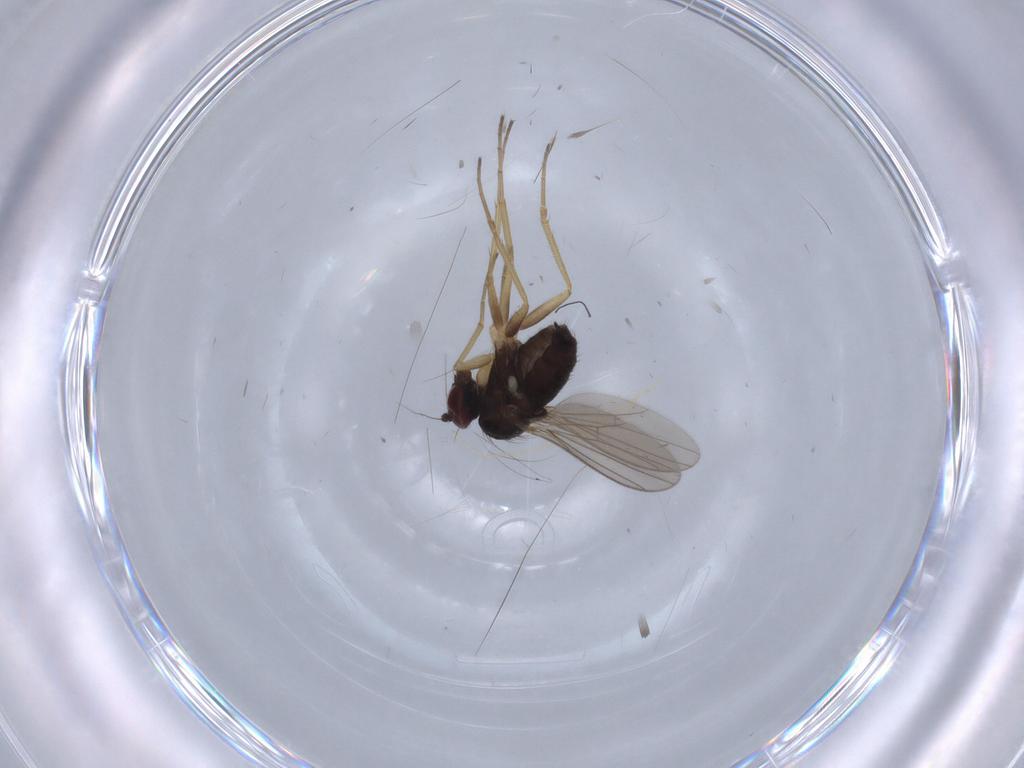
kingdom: Animalia
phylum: Arthropoda
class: Insecta
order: Diptera
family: Dolichopodidae
